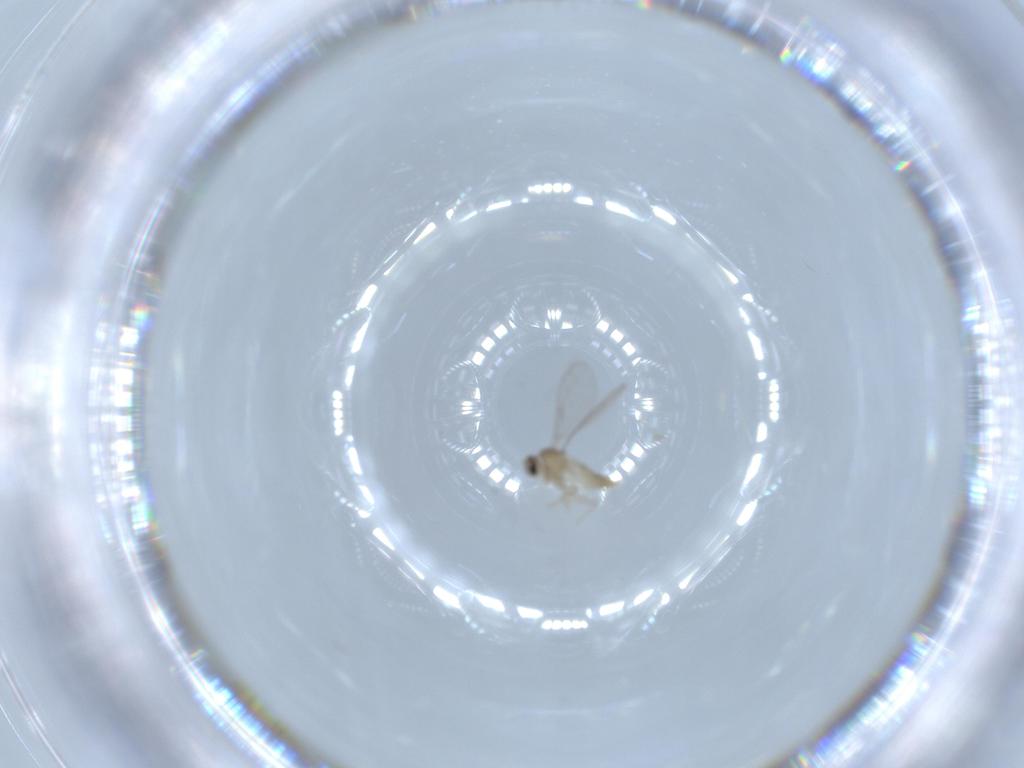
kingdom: Animalia
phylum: Arthropoda
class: Insecta
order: Diptera
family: Cecidomyiidae
